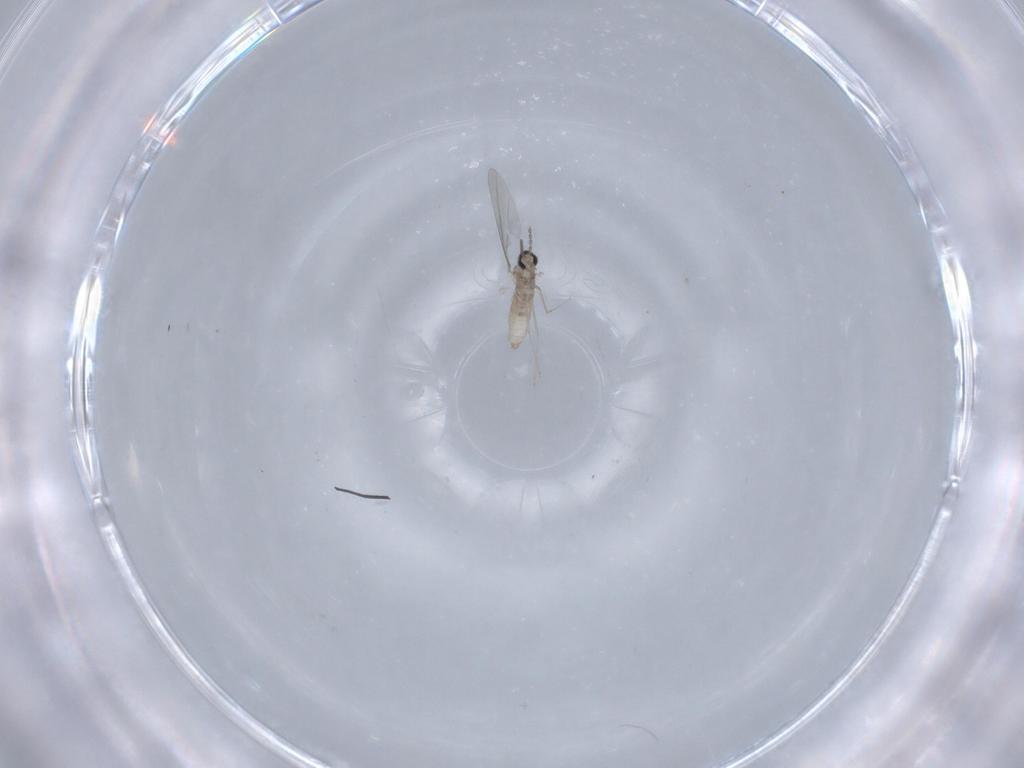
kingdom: Animalia
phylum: Arthropoda
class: Insecta
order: Diptera
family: Cecidomyiidae
